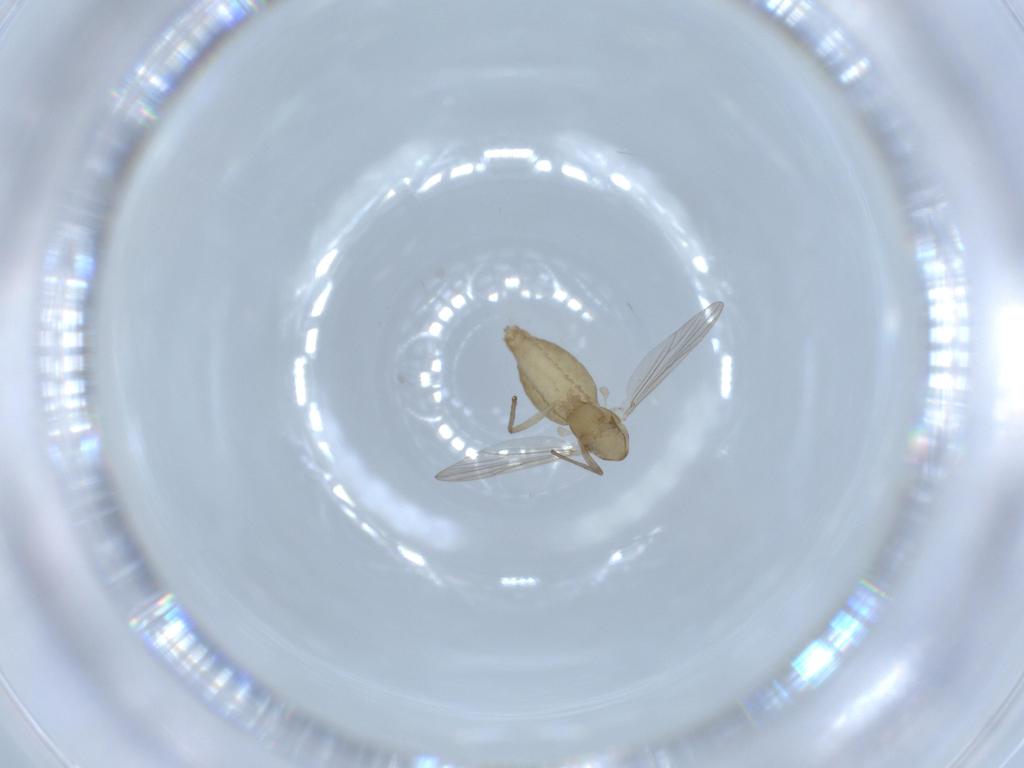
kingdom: Animalia
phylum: Arthropoda
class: Insecta
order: Diptera
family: Chironomidae
